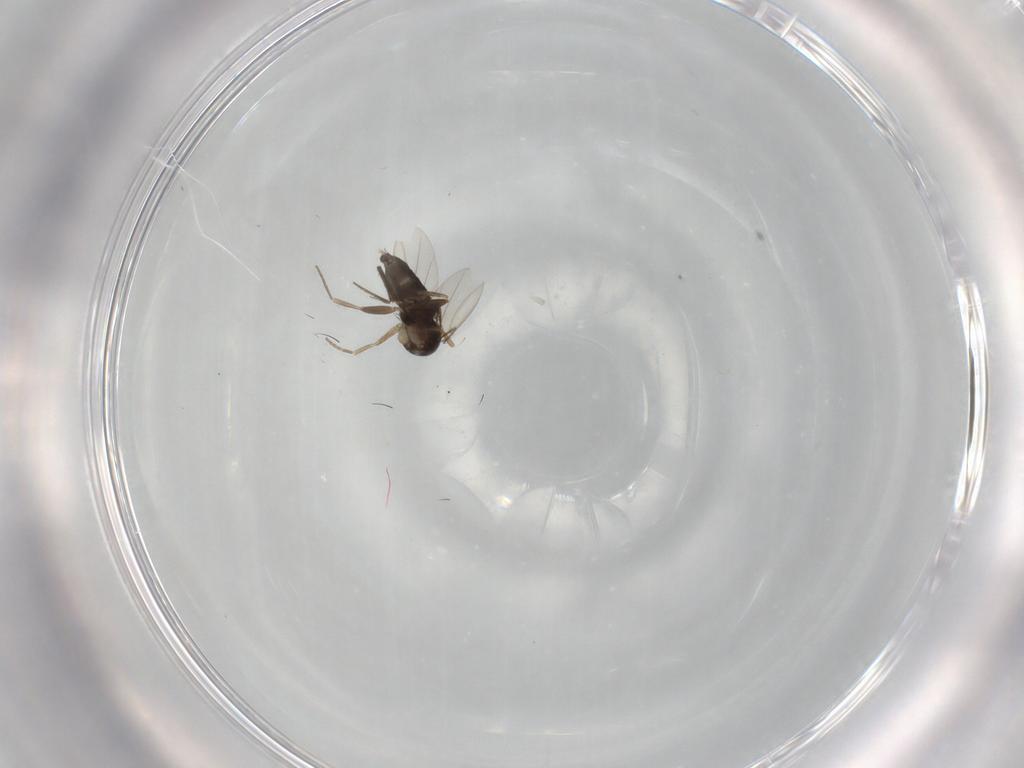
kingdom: Animalia
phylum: Arthropoda
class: Insecta
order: Diptera
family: Cecidomyiidae
